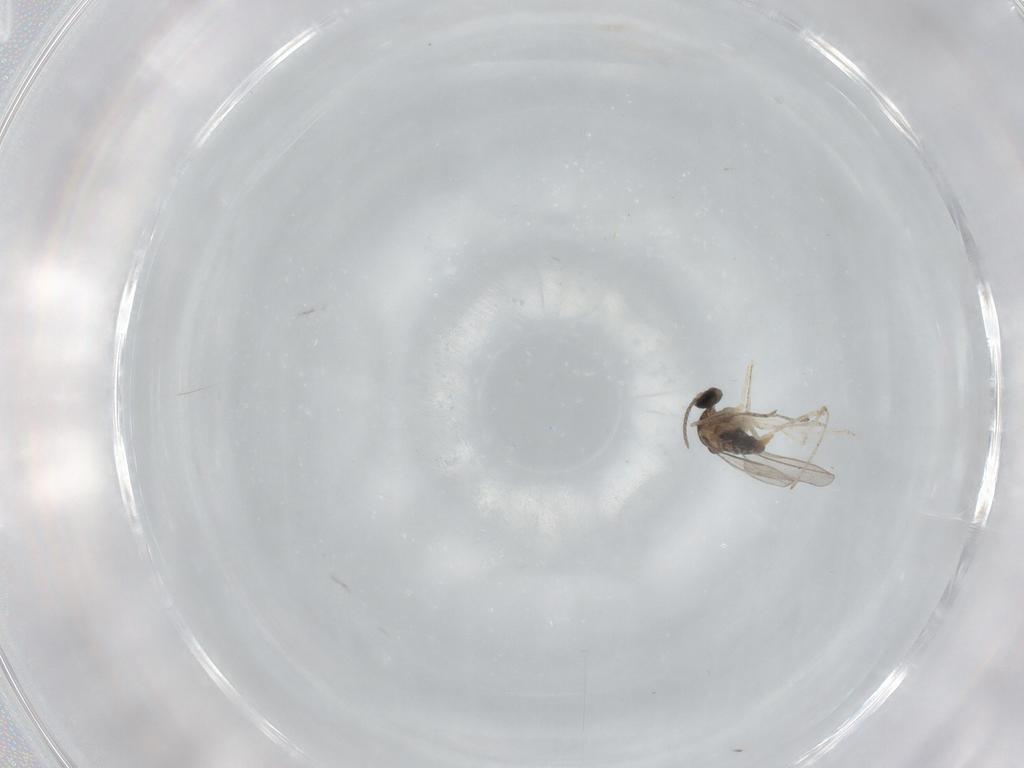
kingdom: Animalia
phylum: Arthropoda
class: Insecta
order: Diptera
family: Cecidomyiidae
